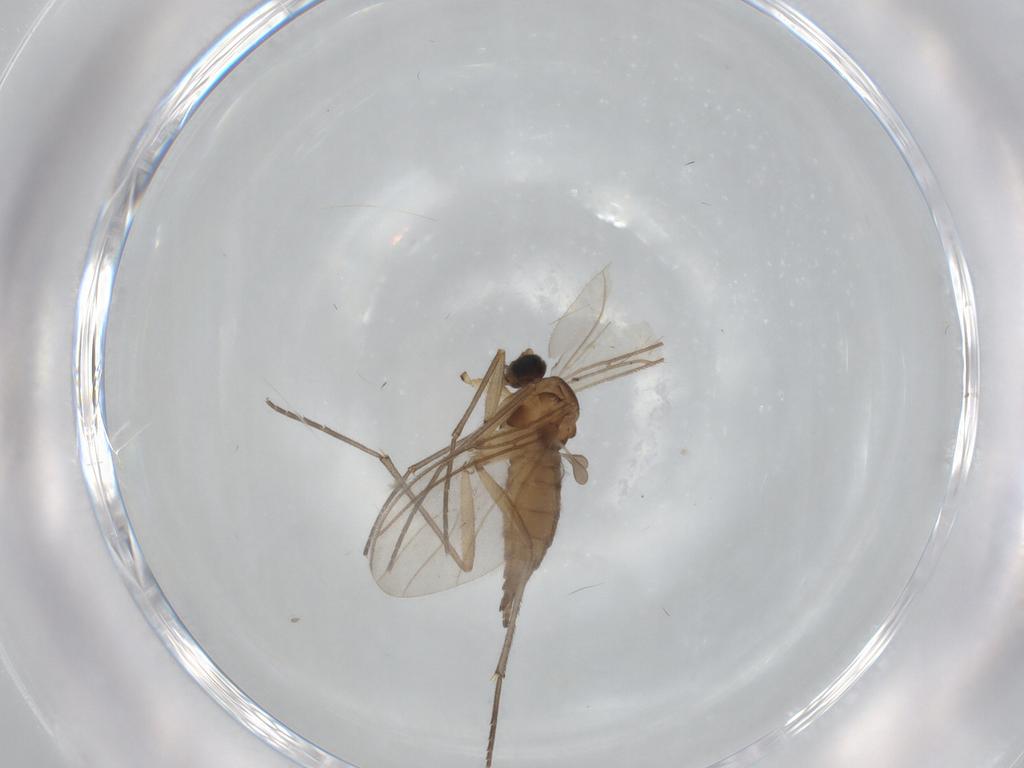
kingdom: Animalia
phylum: Arthropoda
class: Insecta
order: Diptera
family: Sciaridae
